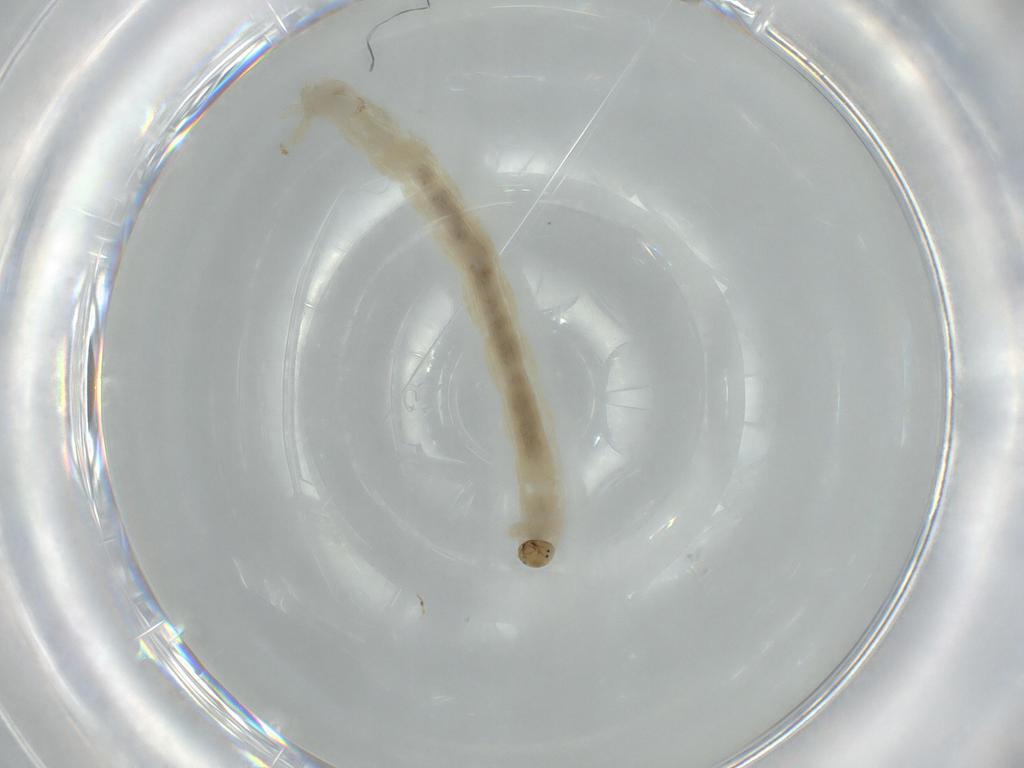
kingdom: Animalia
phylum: Arthropoda
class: Insecta
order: Diptera
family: Chironomidae
